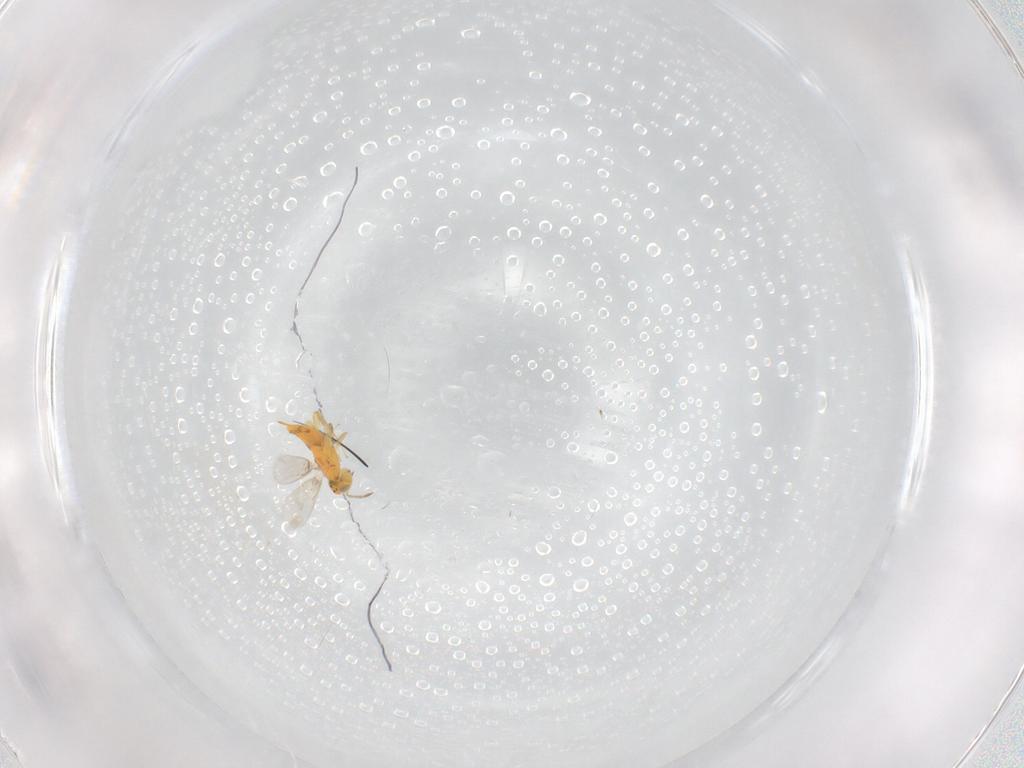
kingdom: Animalia
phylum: Arthropoda
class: Insecta
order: Hymenoptera
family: Aphelinidae
